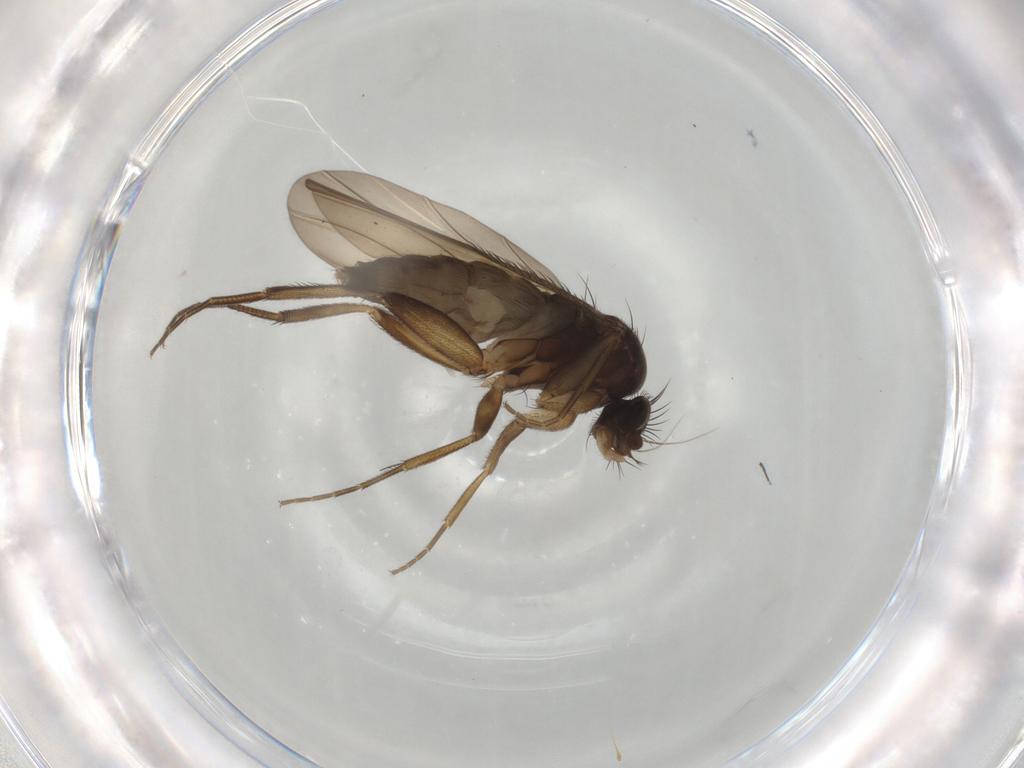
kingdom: Animalia
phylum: Arthropoda
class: Insecta
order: Diptera
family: Phoridae
